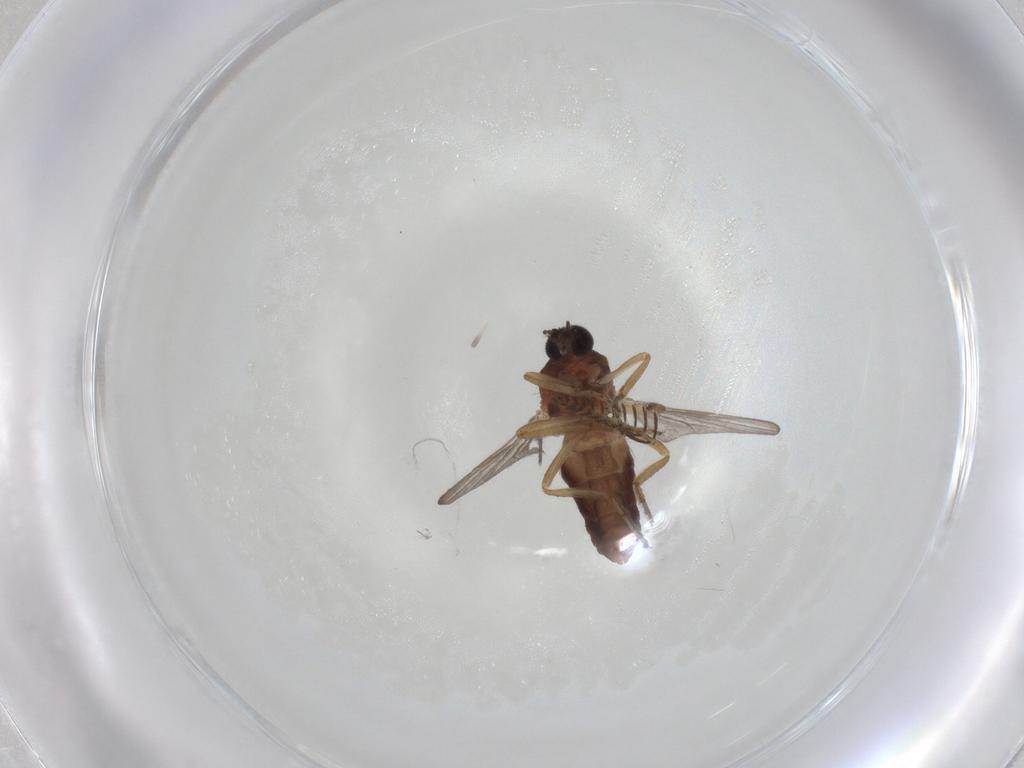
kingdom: Animalia
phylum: Arthropoda
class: Insecta
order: Diptera
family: Ceratopogonidae
